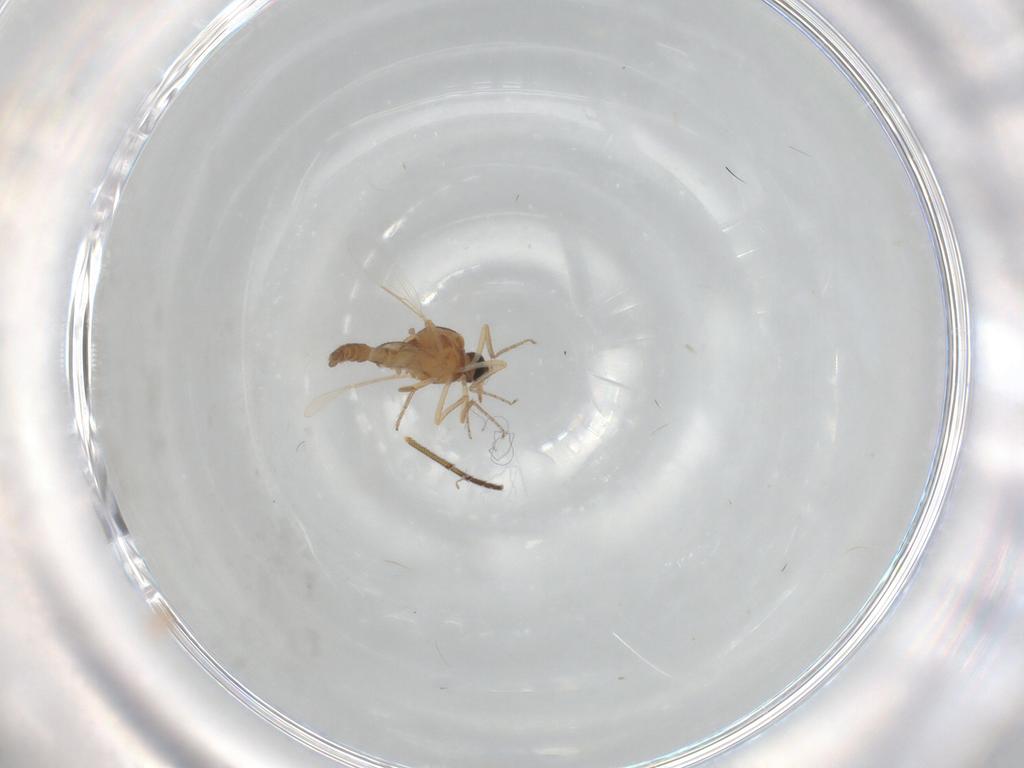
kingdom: Animalia
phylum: Arthropoda
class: Insecta
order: Diptera
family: Ceratopogonidae
